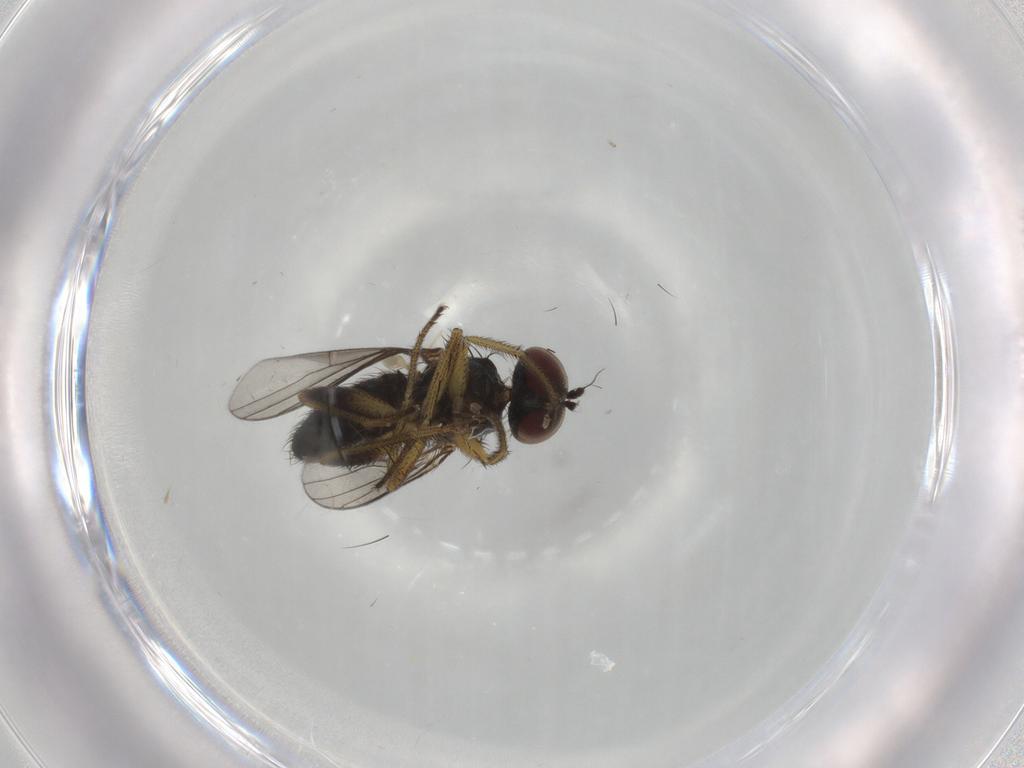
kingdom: Animalia
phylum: Arthropoda
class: Insecta
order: Diptera
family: Dolichopodidae
